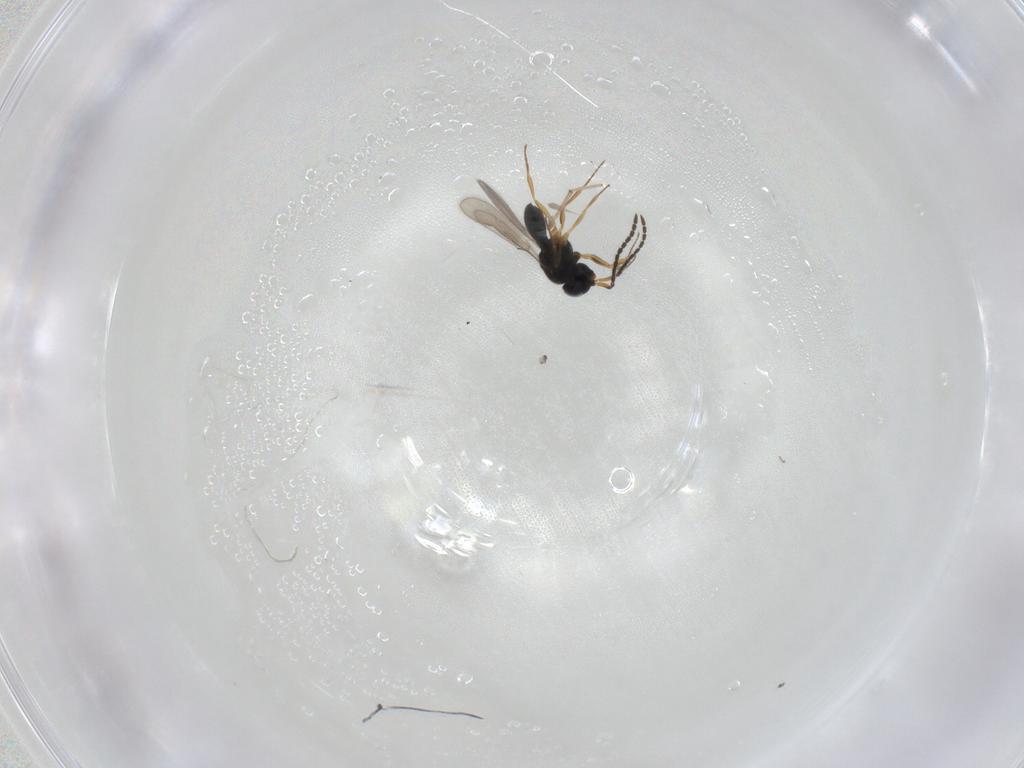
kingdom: Animalia
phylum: Arthropoda
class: Insecta
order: Hymenoptera
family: Scelionidae
